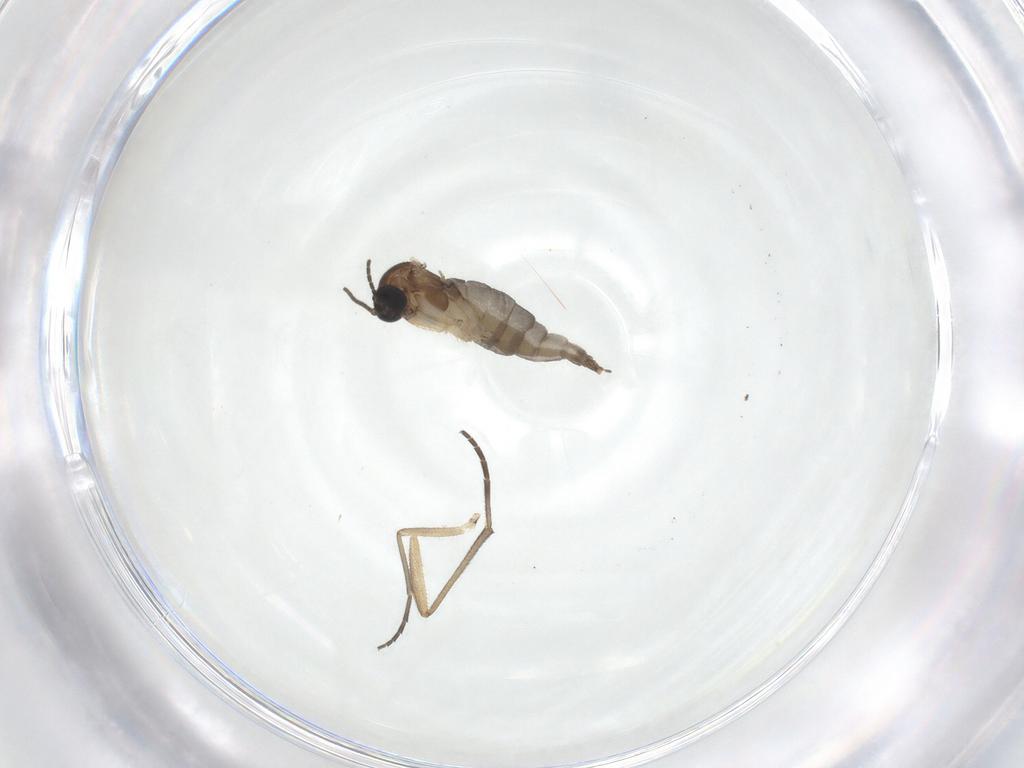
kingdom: Animalia
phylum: Arthropoda
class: Insecta
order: Diptera
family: Sciaridae
